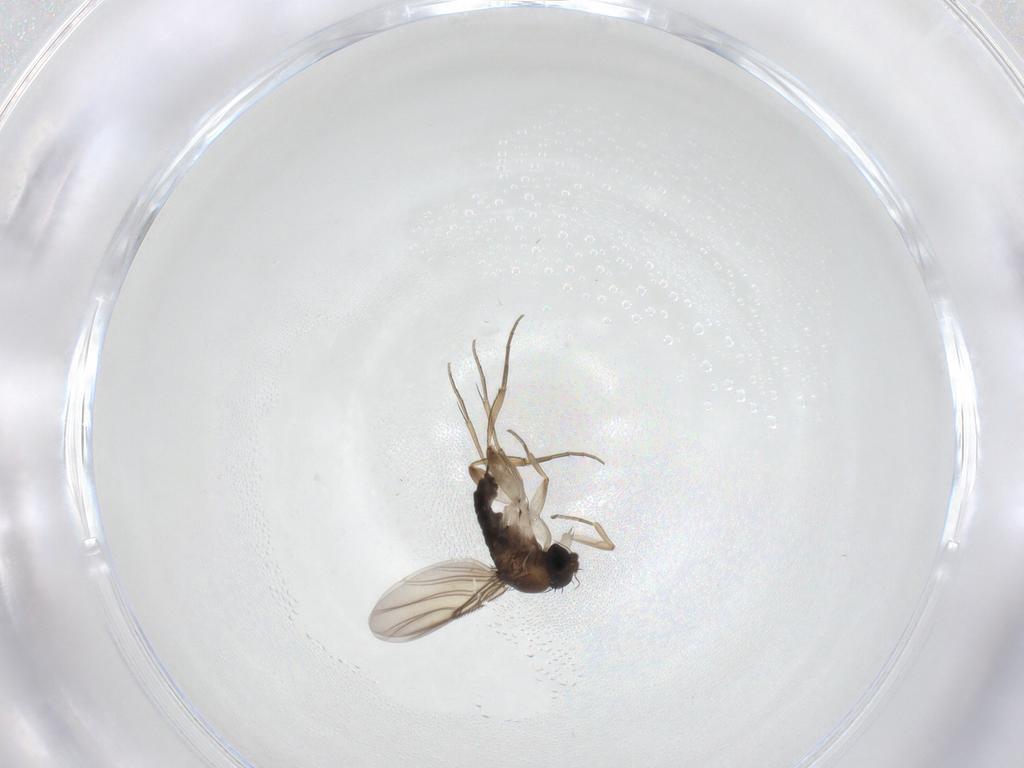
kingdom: Animalia
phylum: Arthropoda
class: Insecta
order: Diptera
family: Phoridae
